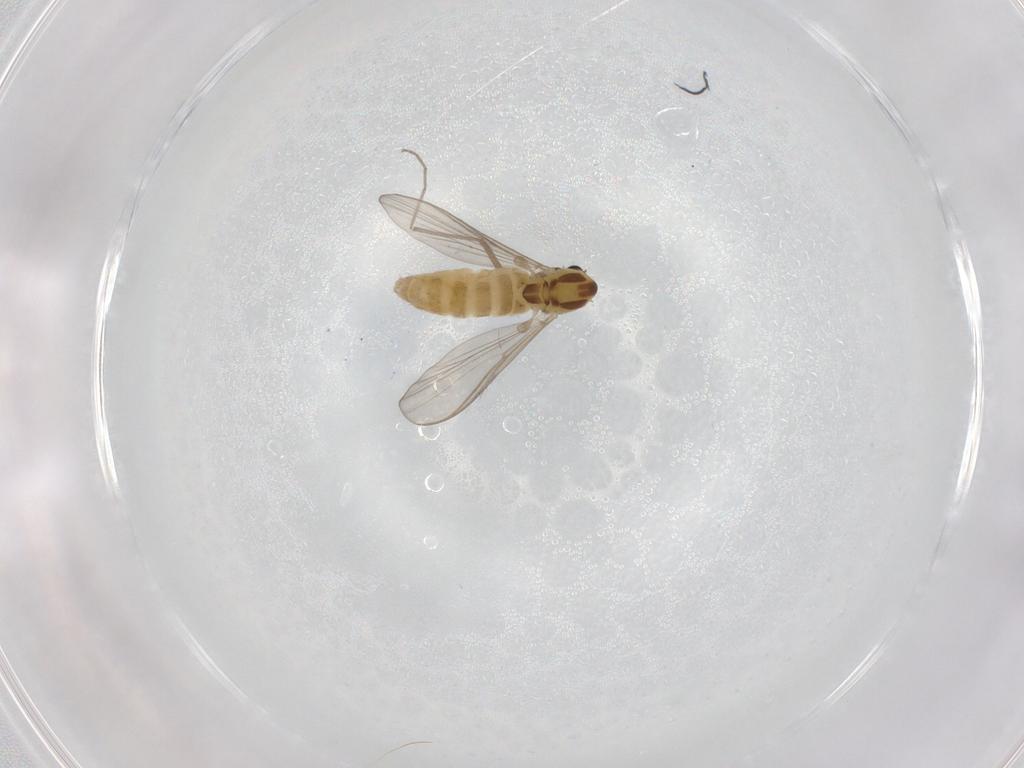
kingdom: Animalia
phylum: Arthropoda
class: Insecta
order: Diptera
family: Chironomidae
